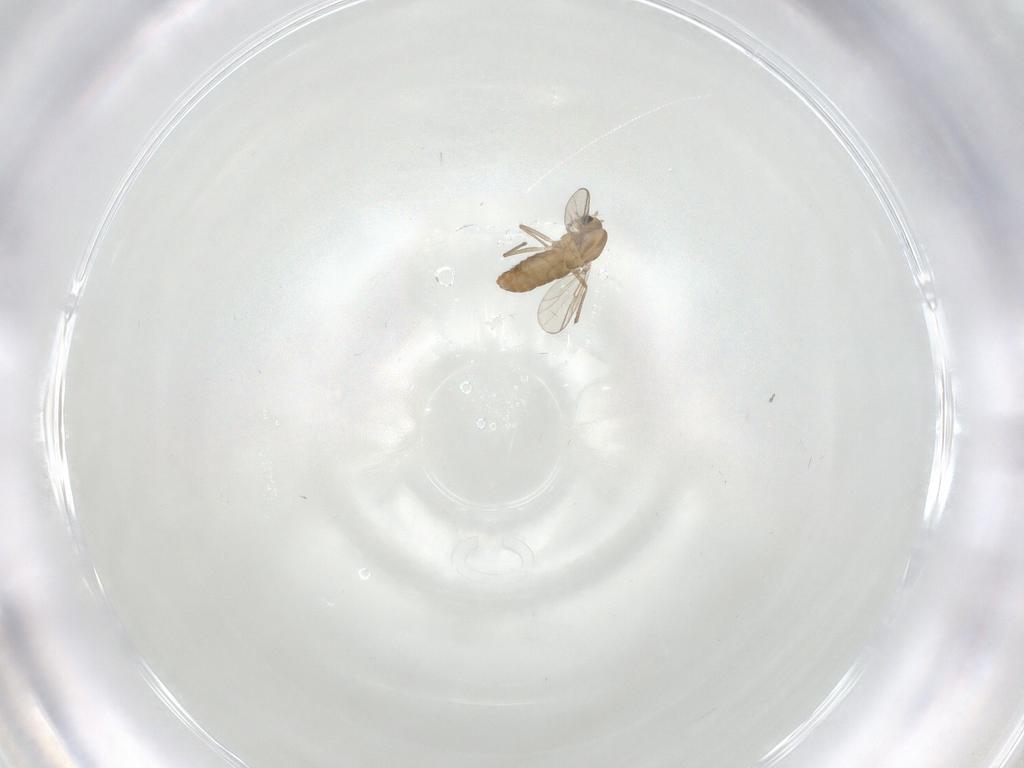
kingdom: Animalia
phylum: Arthropoda
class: Insecta
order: Diptera
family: Chironomidae
